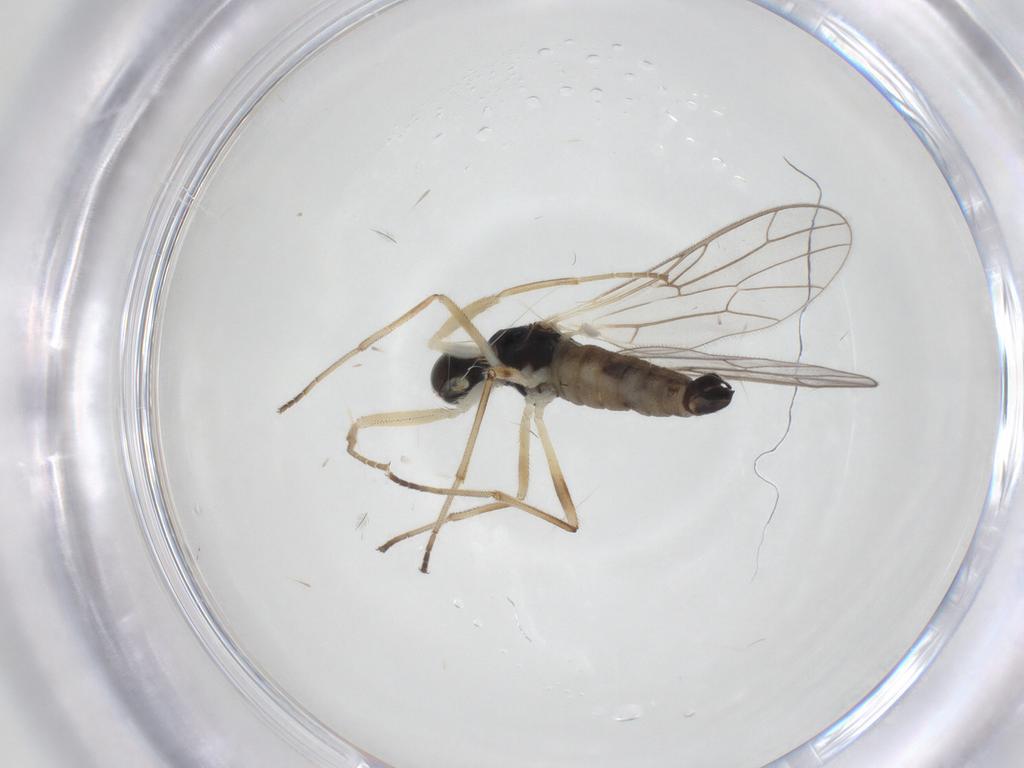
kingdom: Animalia
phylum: Arthropoda
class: Insecta
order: Diptera
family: Empididae
